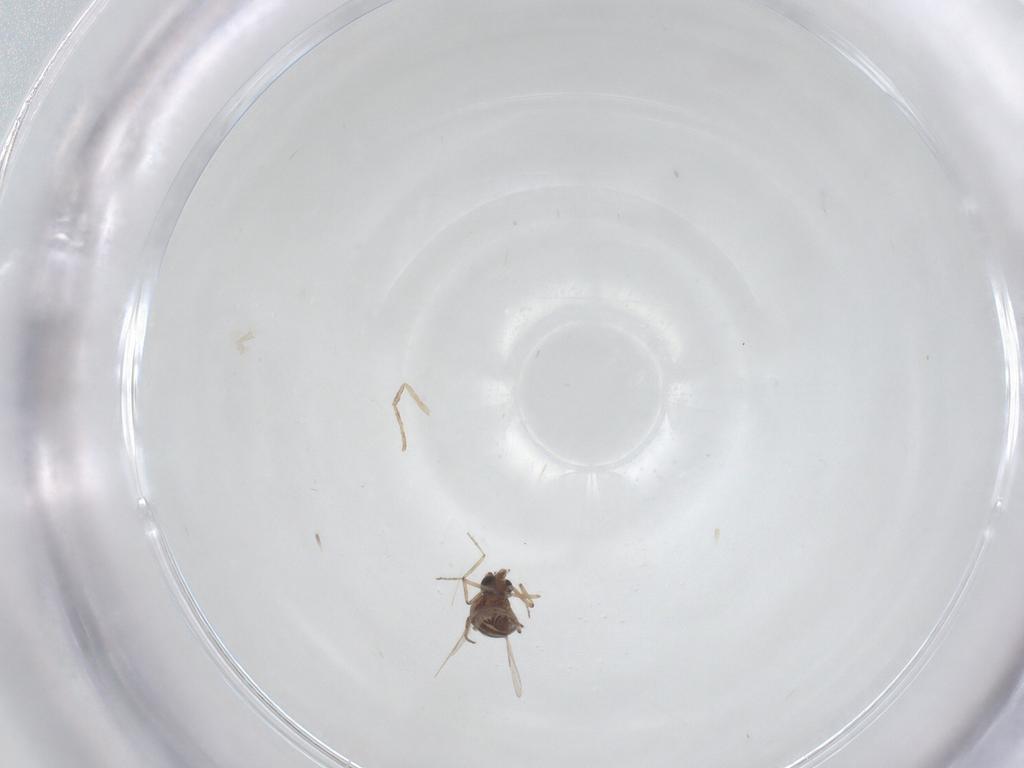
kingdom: Animalia
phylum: Arthropoda
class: Insecta
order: Diptera
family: Ceratopogonidae
